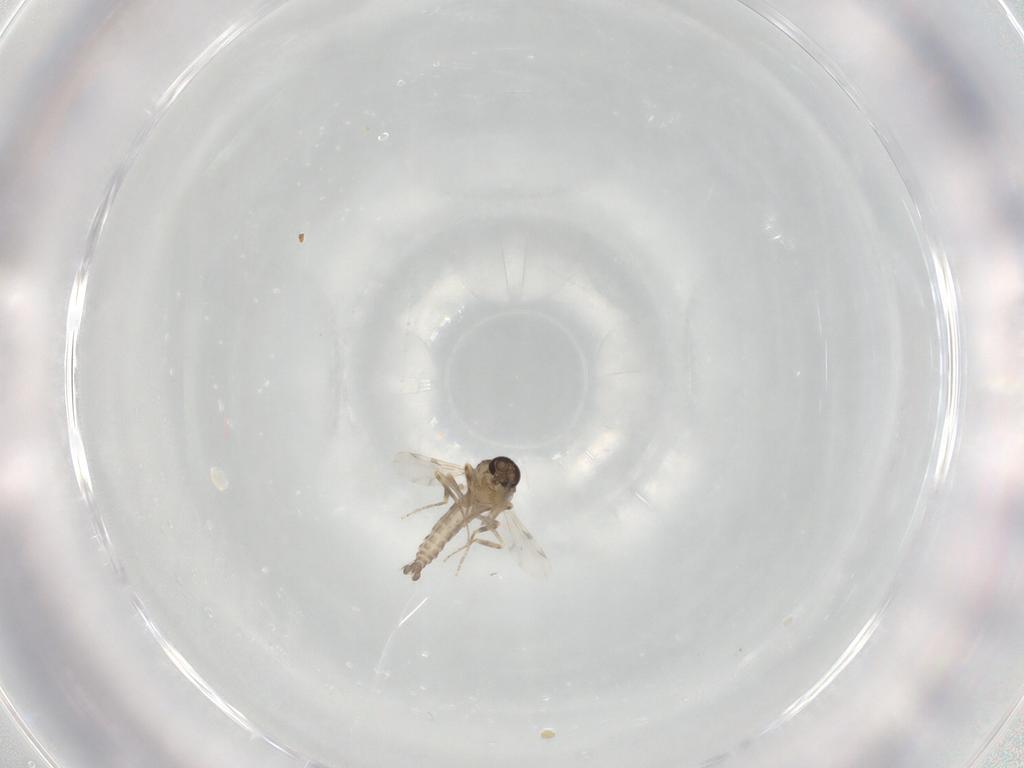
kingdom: Animalia
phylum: Arthropoda
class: Insecta
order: Diptera
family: Ceratopogonidae
